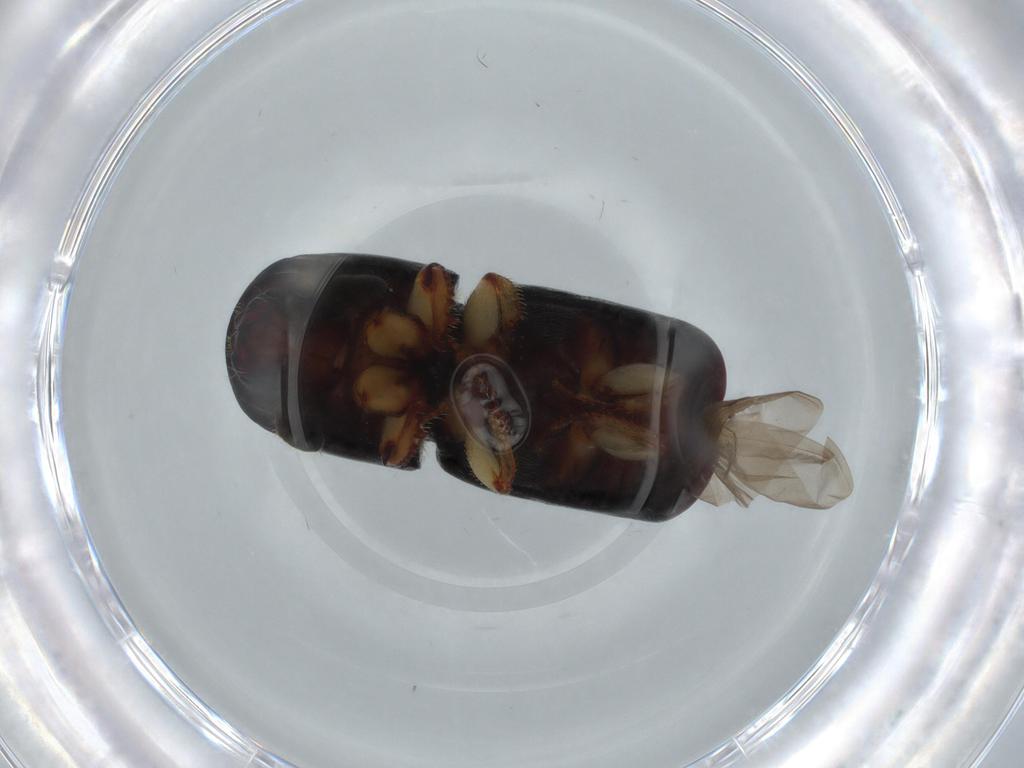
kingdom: Animalia
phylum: Arthropoda
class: Insecta
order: Coleoptera
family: Curculionidae
